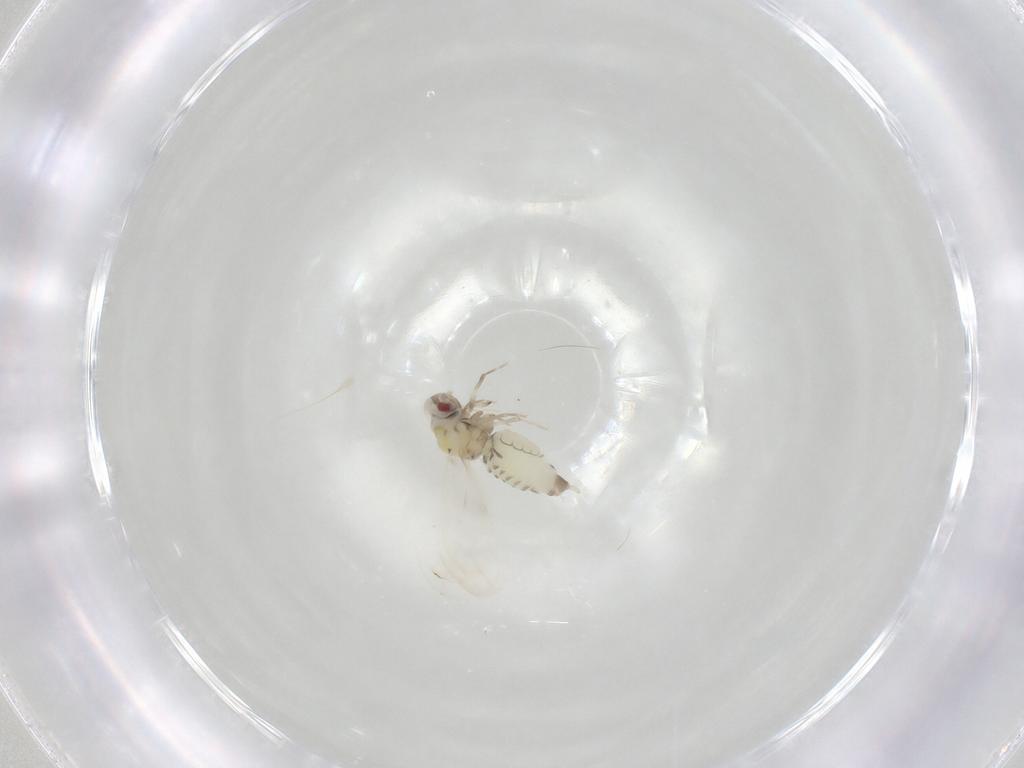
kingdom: Animalia
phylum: Arthropoda
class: Insecta
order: Hemiptera
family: Aleyrodidae
